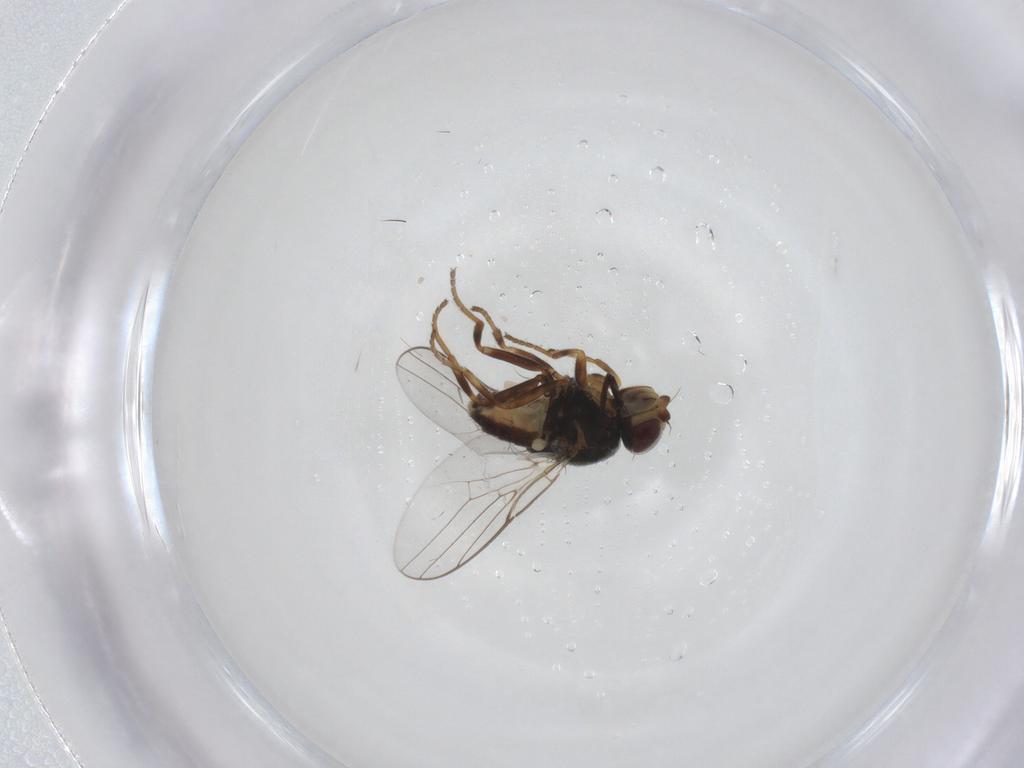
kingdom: Animalia
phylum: Arthropoda
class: Insecta
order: Diptera
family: Chloropidae
